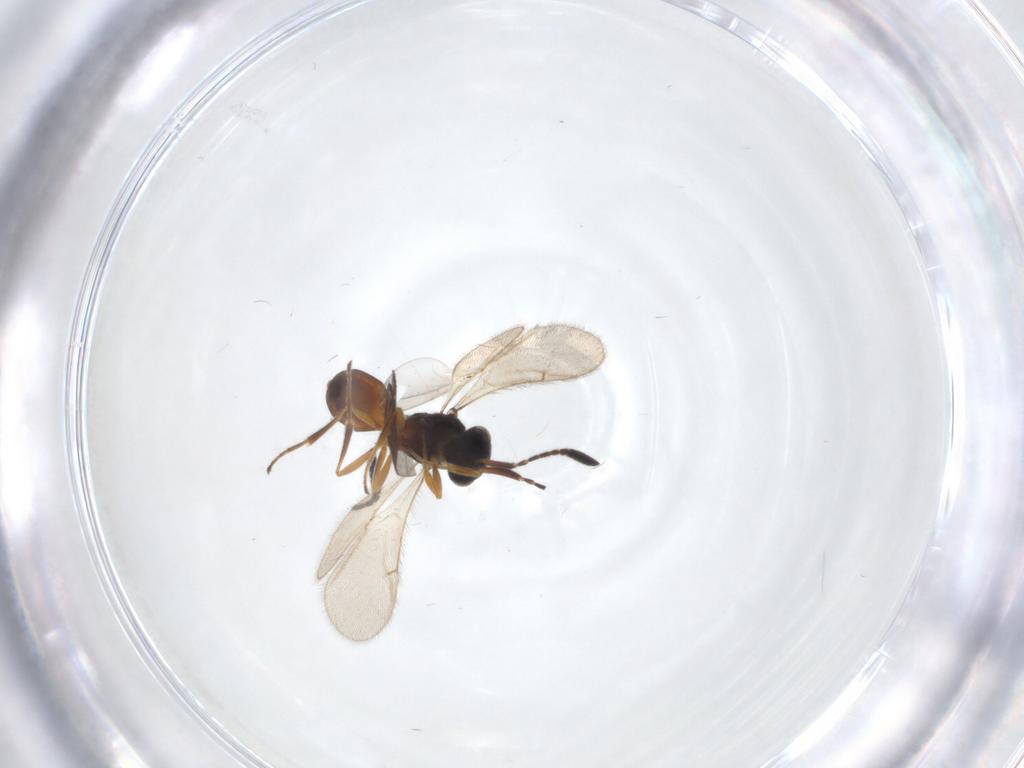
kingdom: Animalia
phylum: Arthropoda
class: Insecta
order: Hymenoptera
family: Scelionidae
